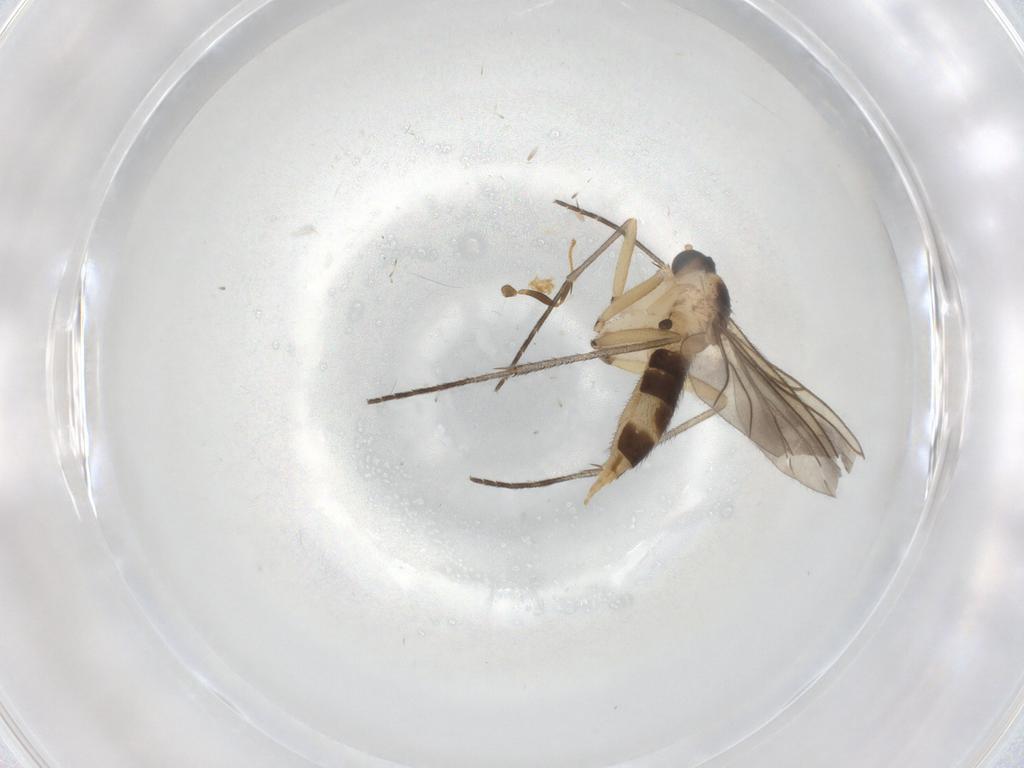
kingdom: Animalia
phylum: Arthropoda
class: Insecta
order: Diptera
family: Sciaridae
